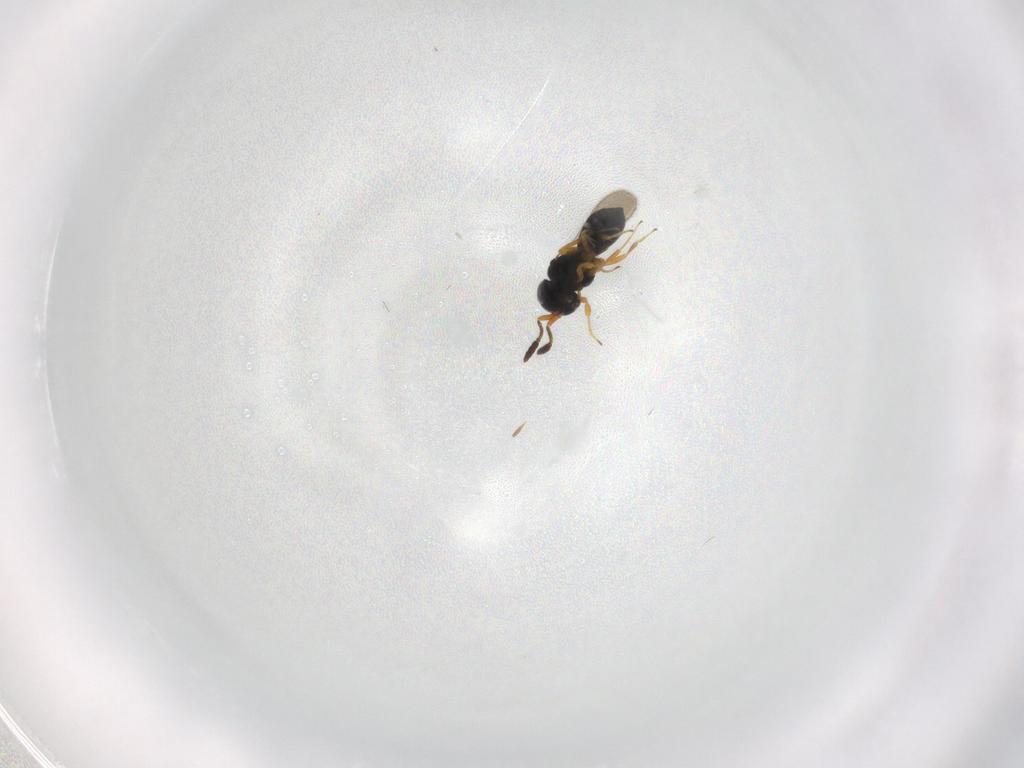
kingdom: Animalia
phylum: Arthropoda
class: Insecta
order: Hymenoptera
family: Scelionidae
